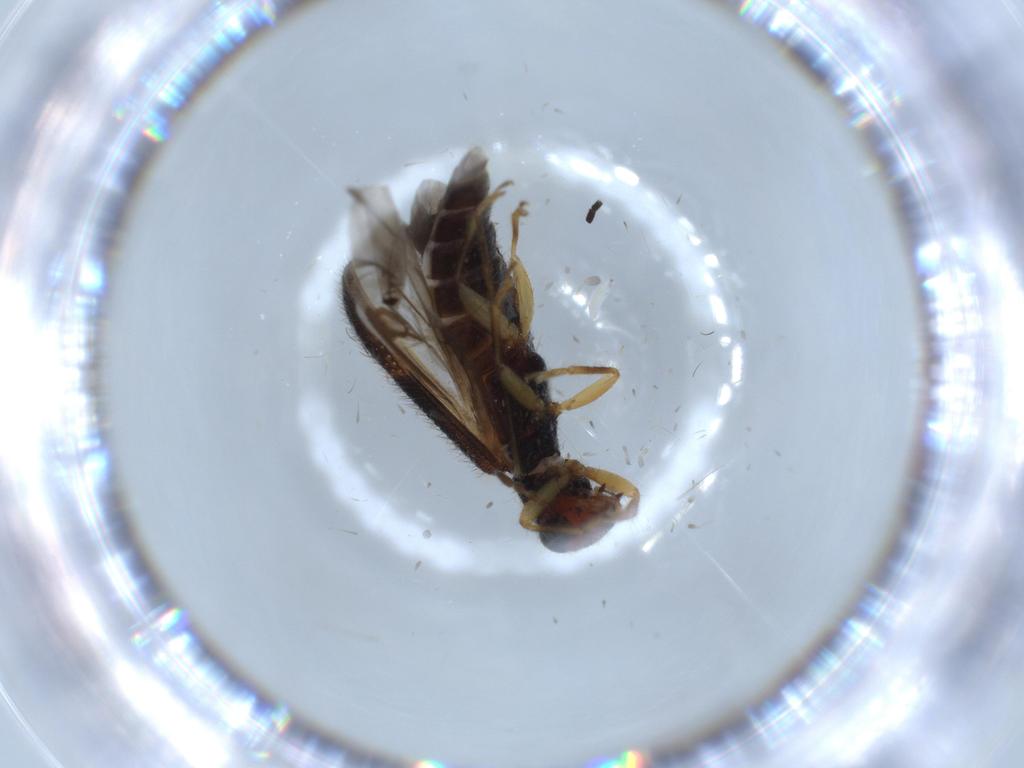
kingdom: Animalia
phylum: Arthropoda
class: Insecta
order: Coleoptera
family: Cleridae
